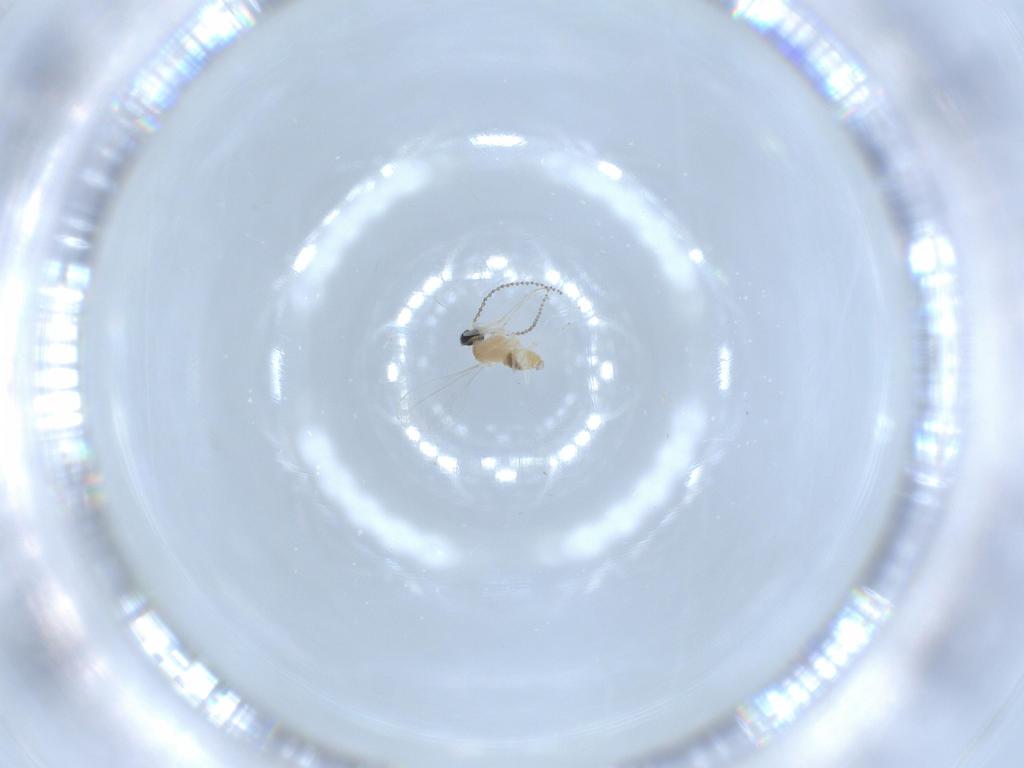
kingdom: Animalia
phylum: Arthropoda
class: Insecta
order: Diptera
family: Cecidomyiidae
